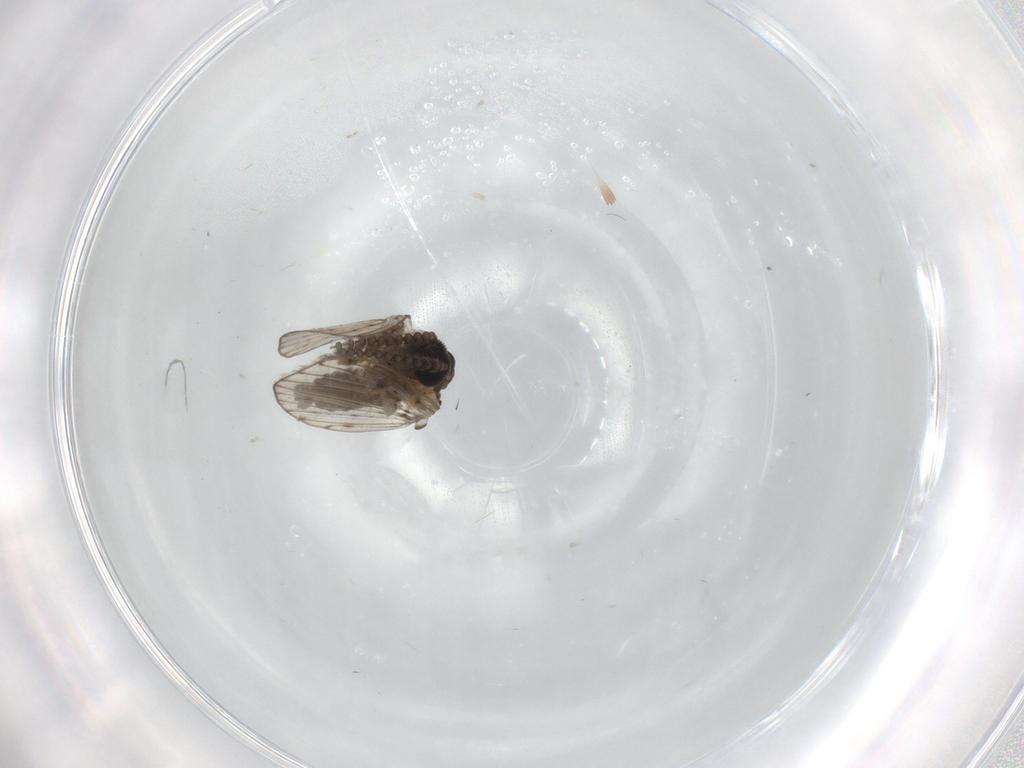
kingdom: Animalia
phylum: Arthropoda
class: Insecta
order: Diptera
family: Psychodidae
